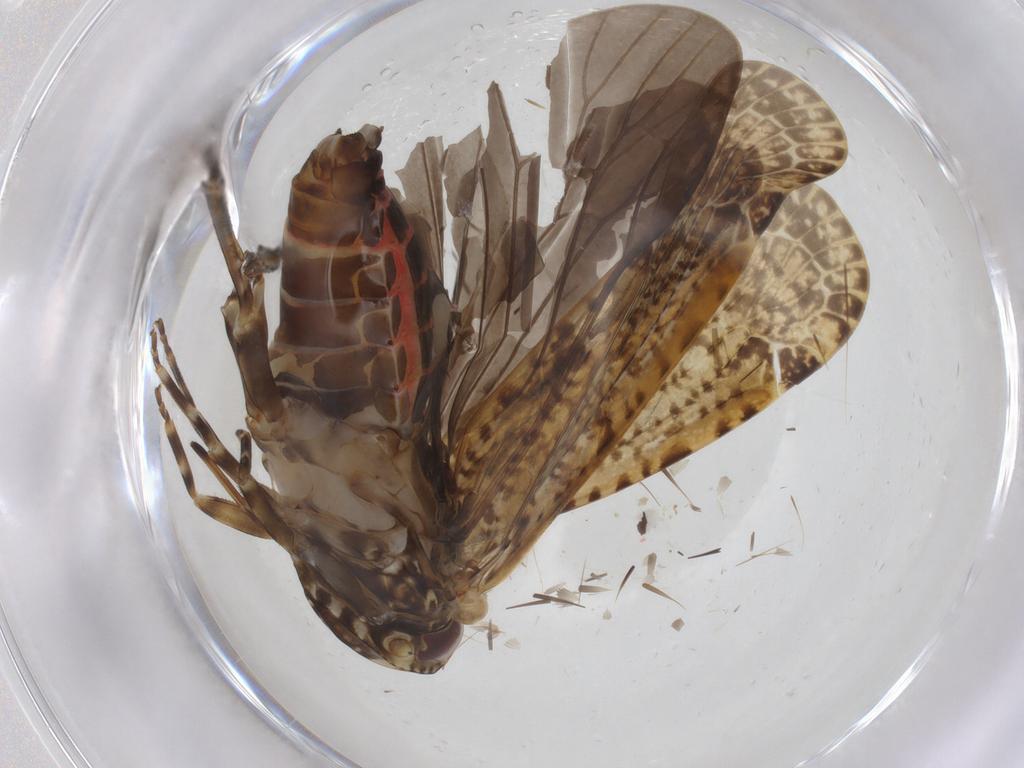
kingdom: Animalia
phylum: Arthropoda
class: Insecta
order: Hemiptera
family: Achilidae
